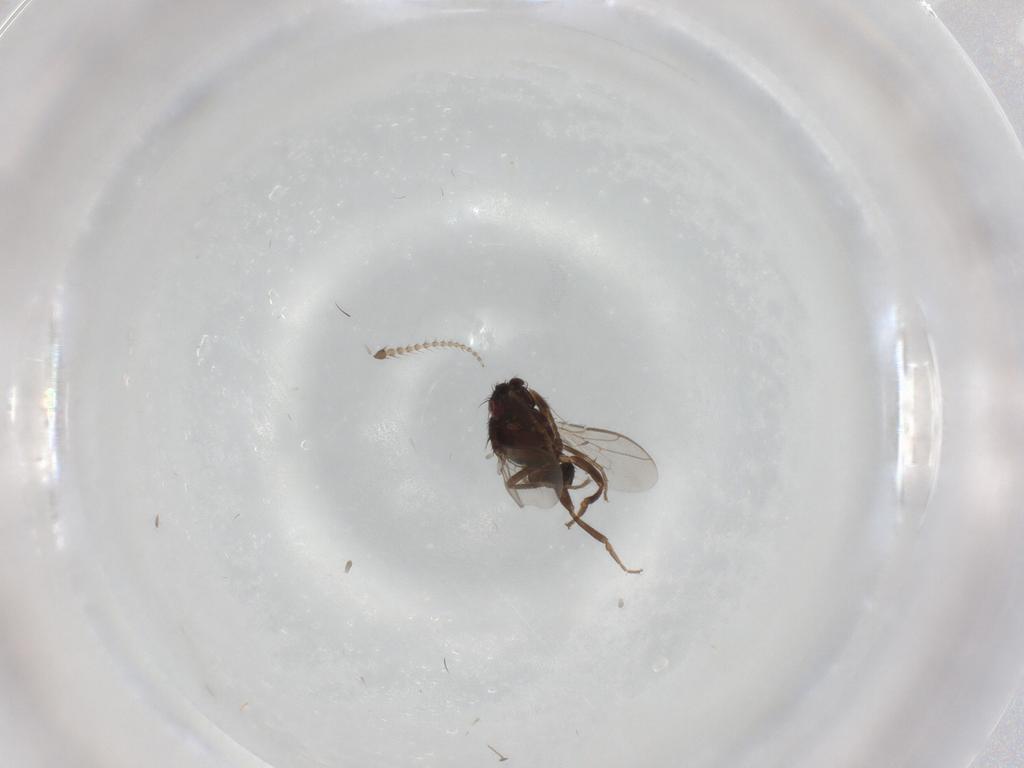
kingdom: Animalia
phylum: Arthropoda
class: Insecta
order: Diptera
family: Sphaeroceridae
